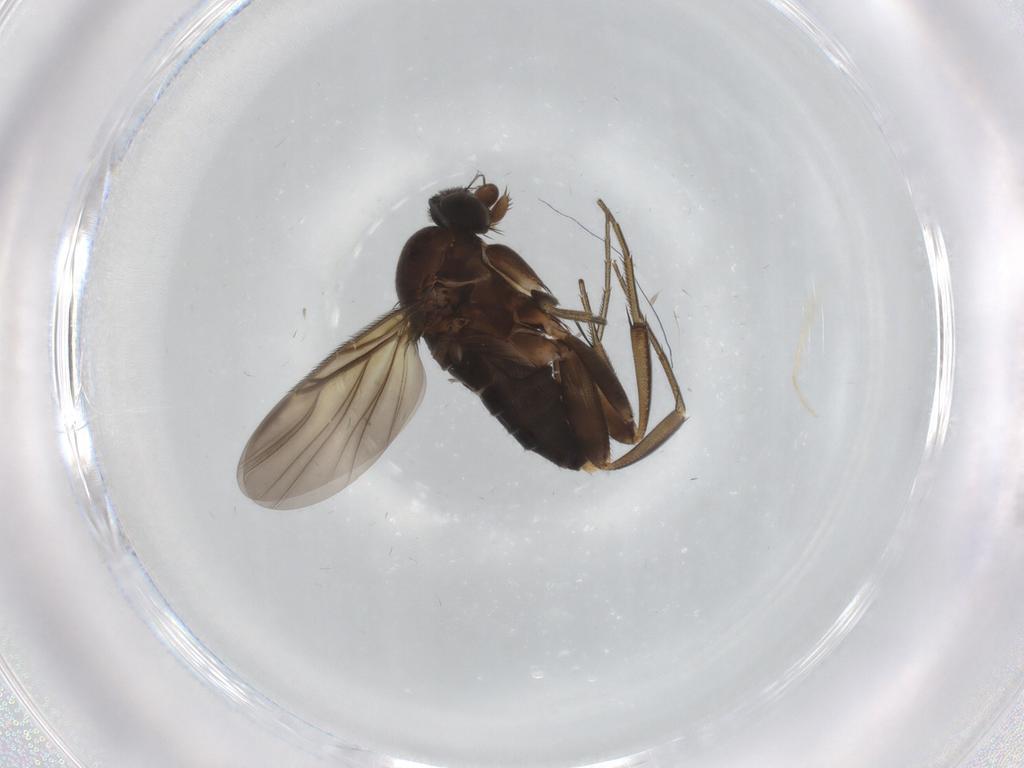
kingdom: Animalia
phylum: Arthropoda
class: Insecta
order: Diptera
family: Phoridae
